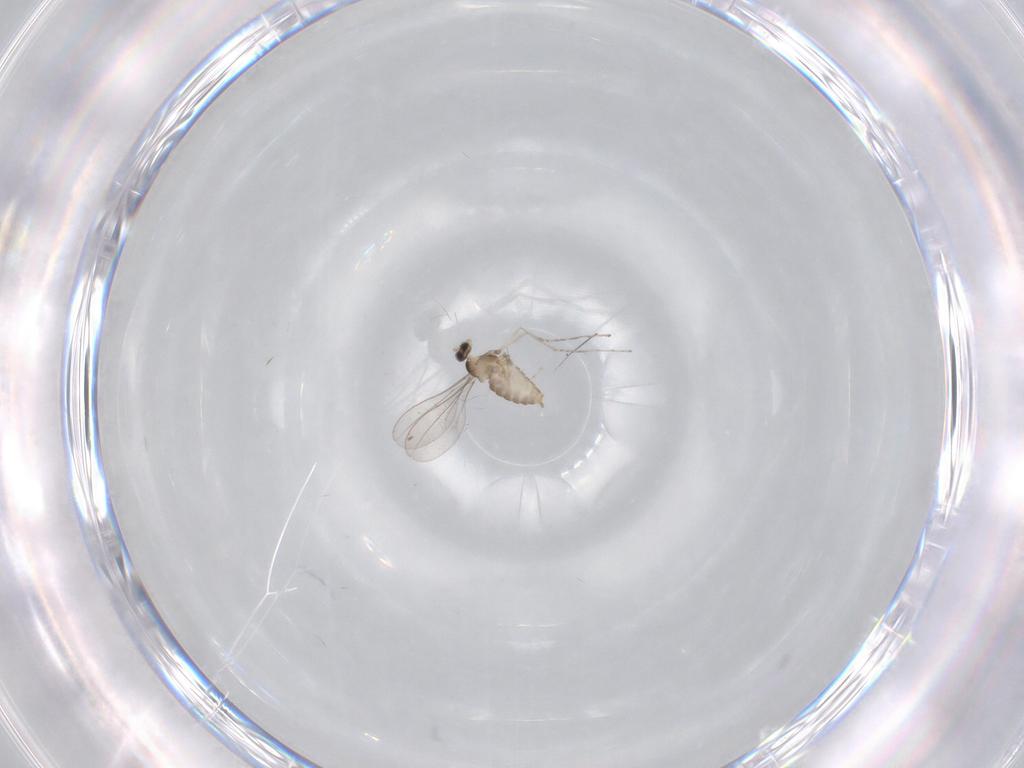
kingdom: Animalia
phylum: Arthropoda
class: Insecta
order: Diptera
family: Cecidomyiidae
